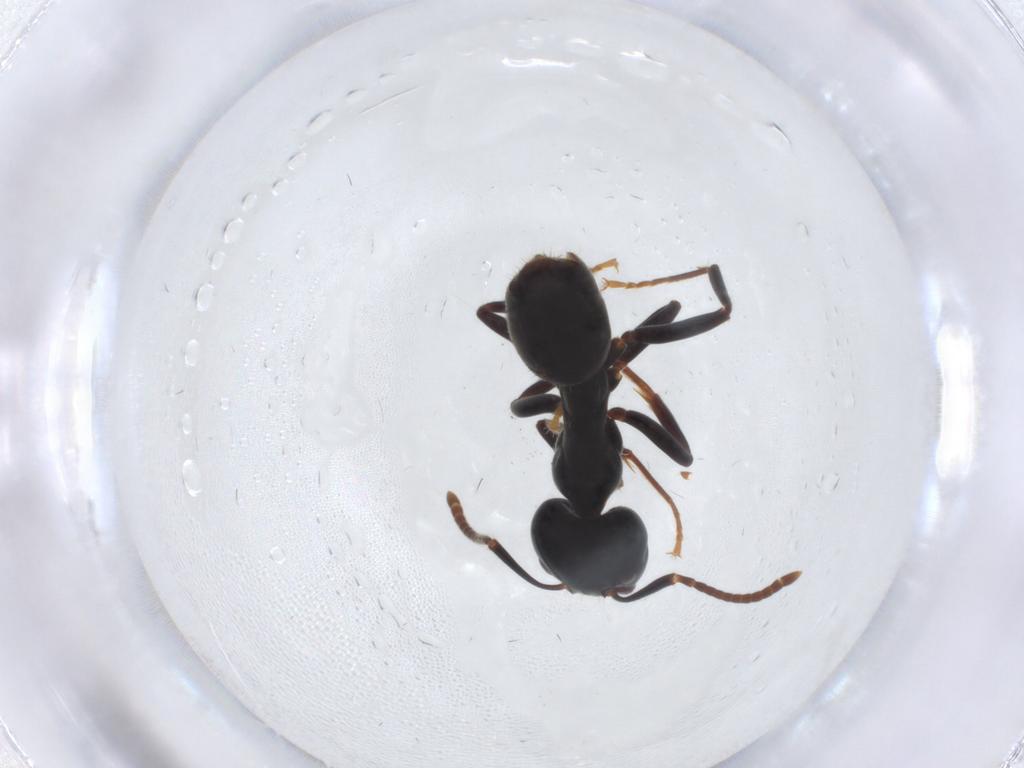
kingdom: Animalia
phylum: Arthropoda
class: Insecta
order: Hymenoptera
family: Formicidae
